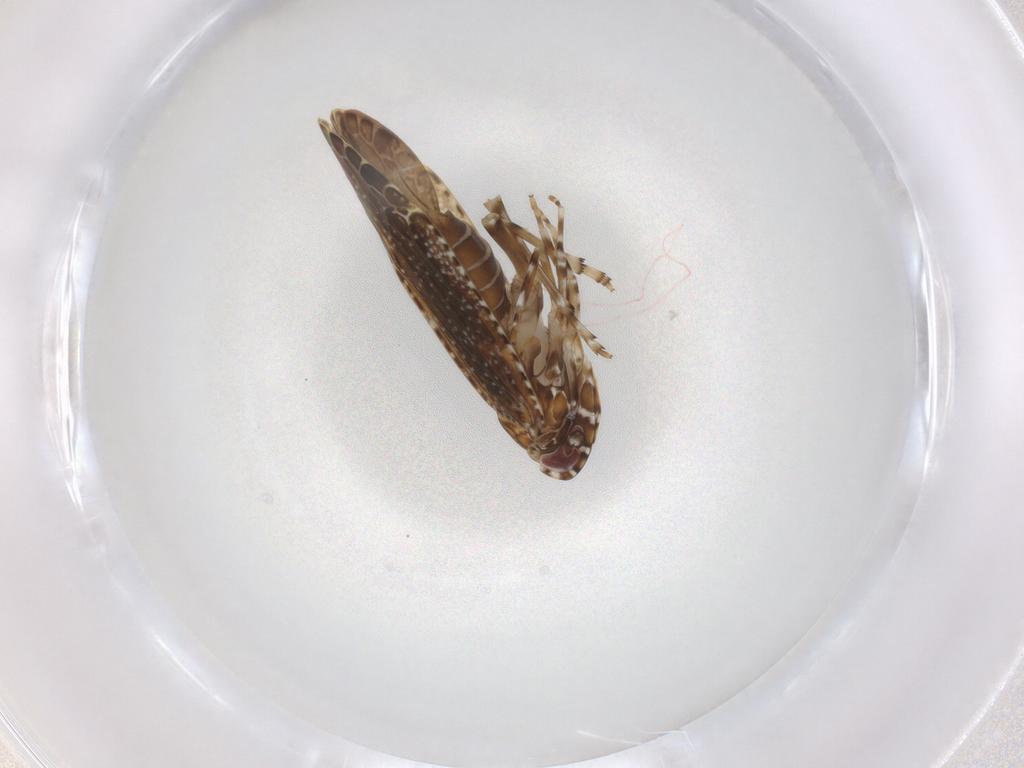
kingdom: Animalia
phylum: Arthropoda
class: Insecta
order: Hemiptera
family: Achilidae
